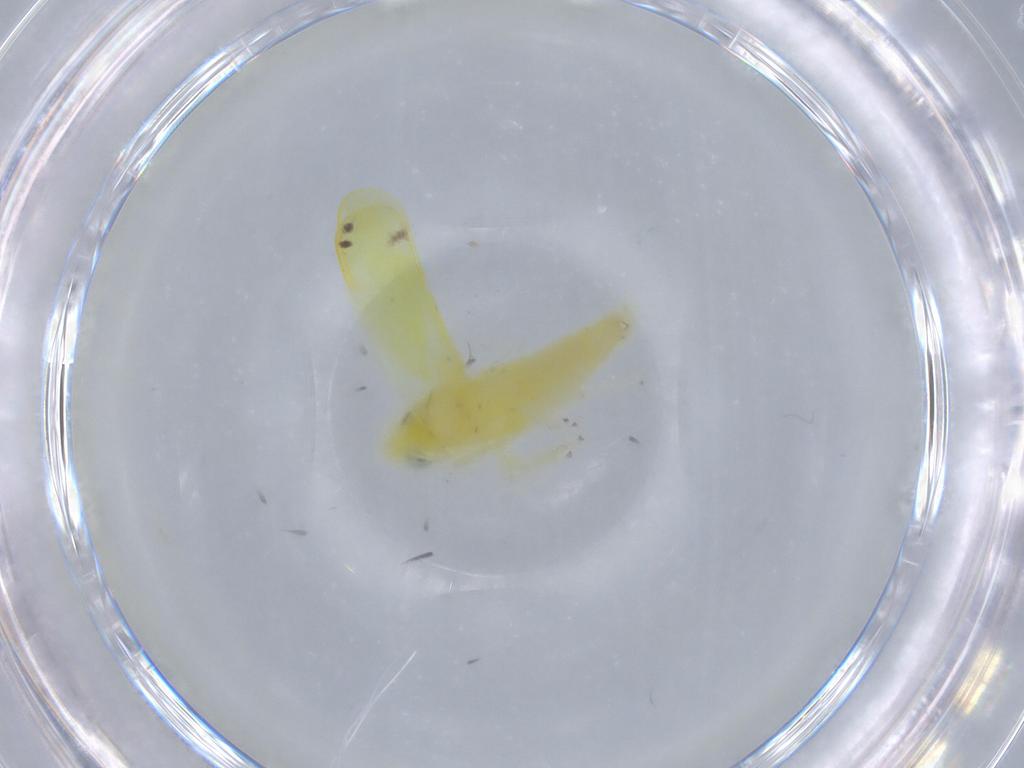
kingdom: Animalia
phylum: Arthropoda
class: Insecta
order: Hemiptera
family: Cicadellidae
